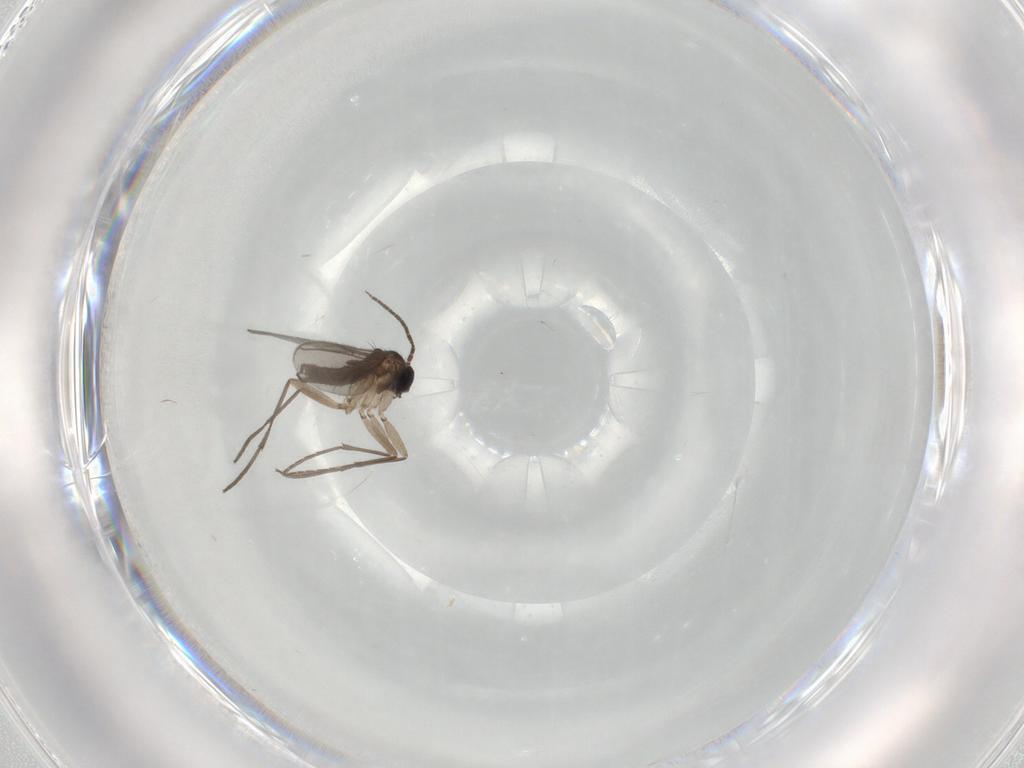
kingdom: Animalia
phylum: Arthropoda
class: Insecta
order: Diptera
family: Sciaridae
